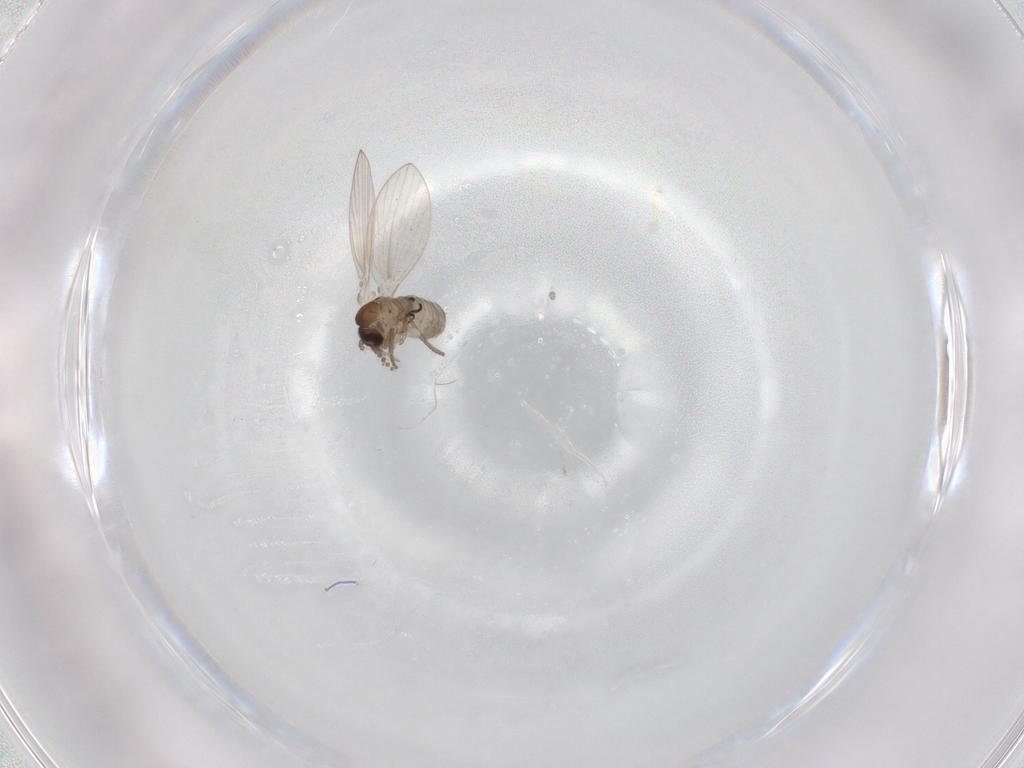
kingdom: Animalia
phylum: Arthropoda
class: Insecta
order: Diptera
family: Psychodidae
